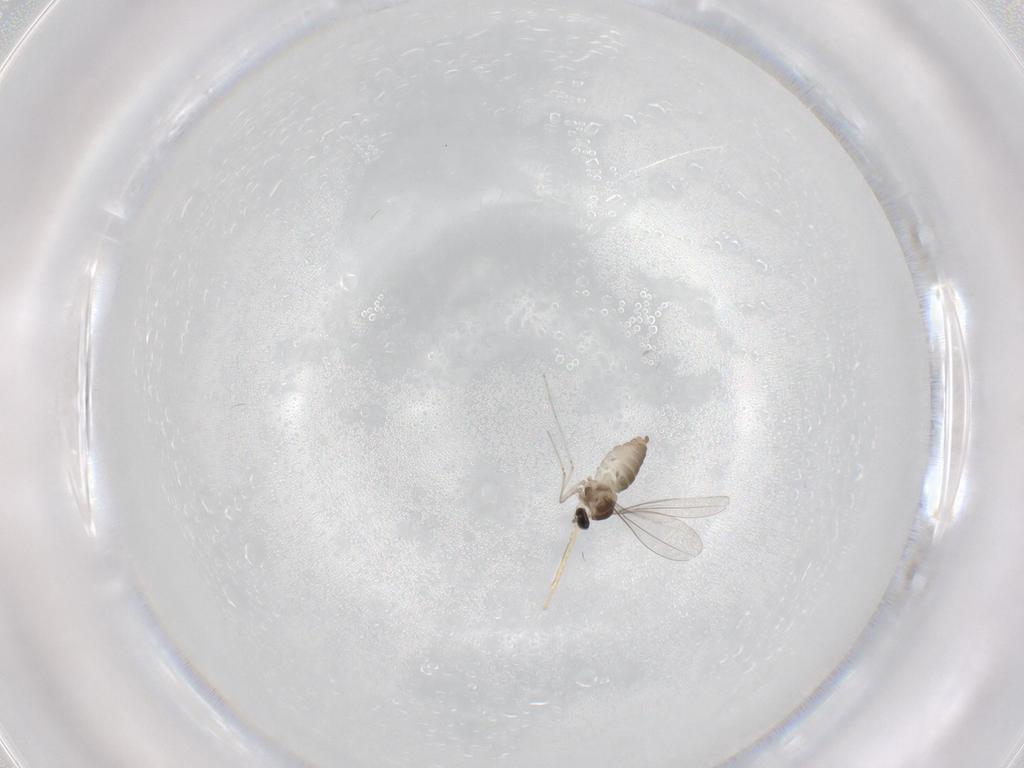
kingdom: Animalia
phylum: Arthropoda
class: Insecta
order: Diptera
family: Cecidomyiidae
